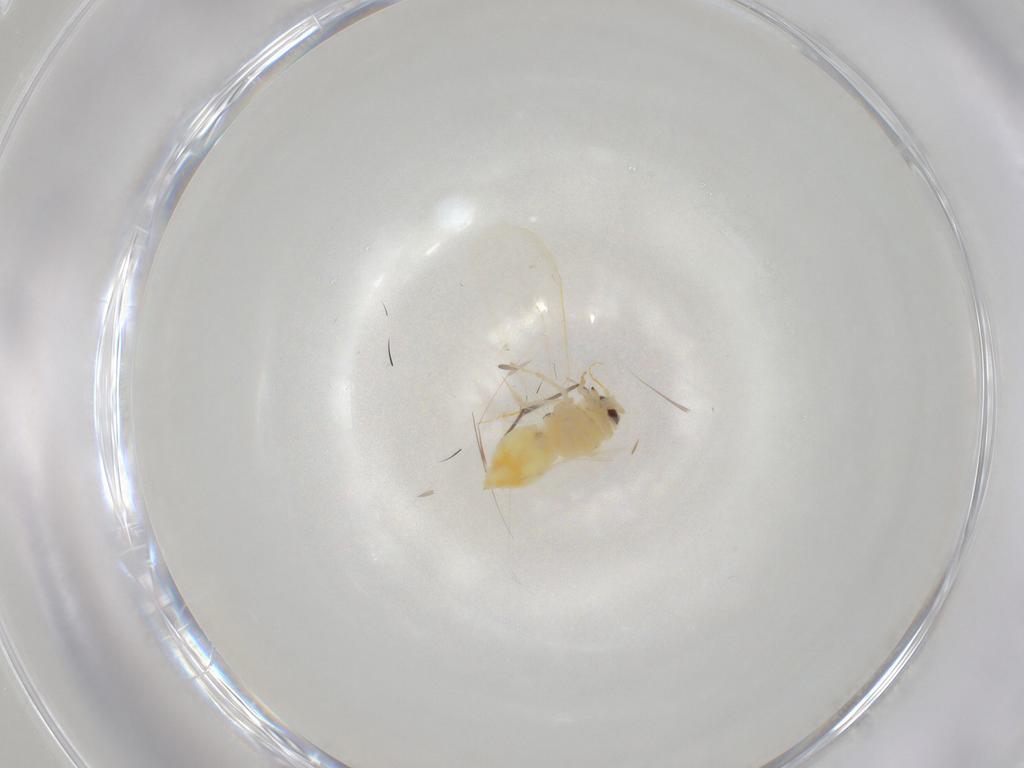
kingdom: Animalia
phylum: Arthropoda
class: Insecta
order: Hemiptera
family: Aleyrodidae
